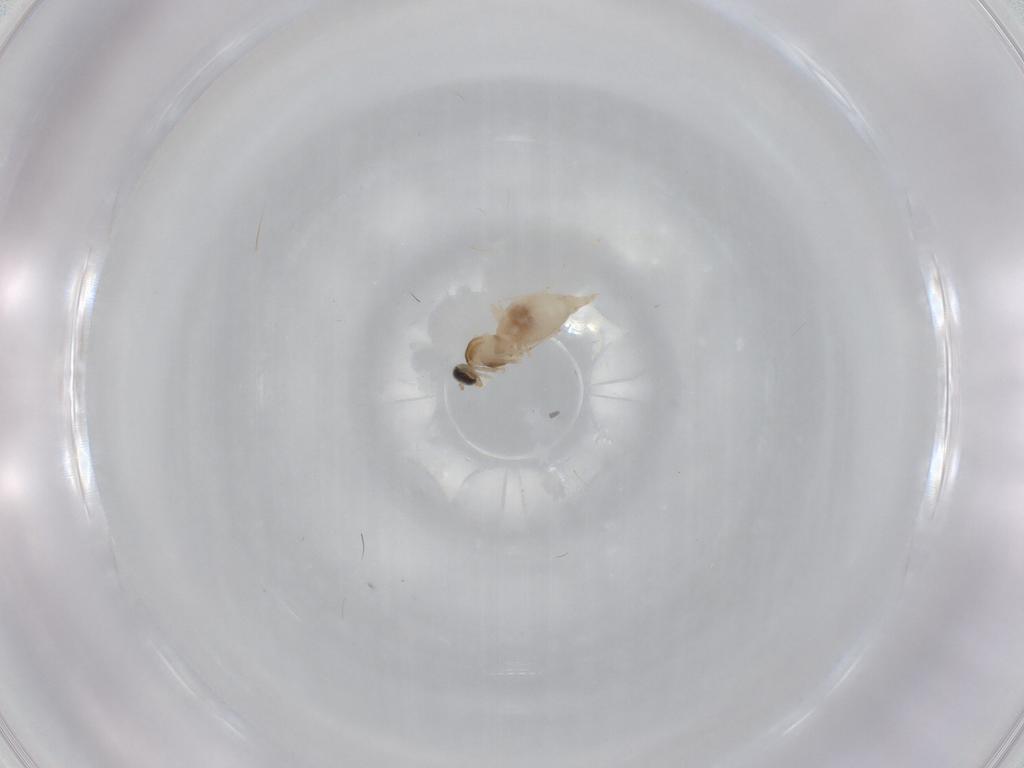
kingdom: Animalia
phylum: Arthropoda
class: Insecta
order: Diptera
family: Cecidomyiidae
